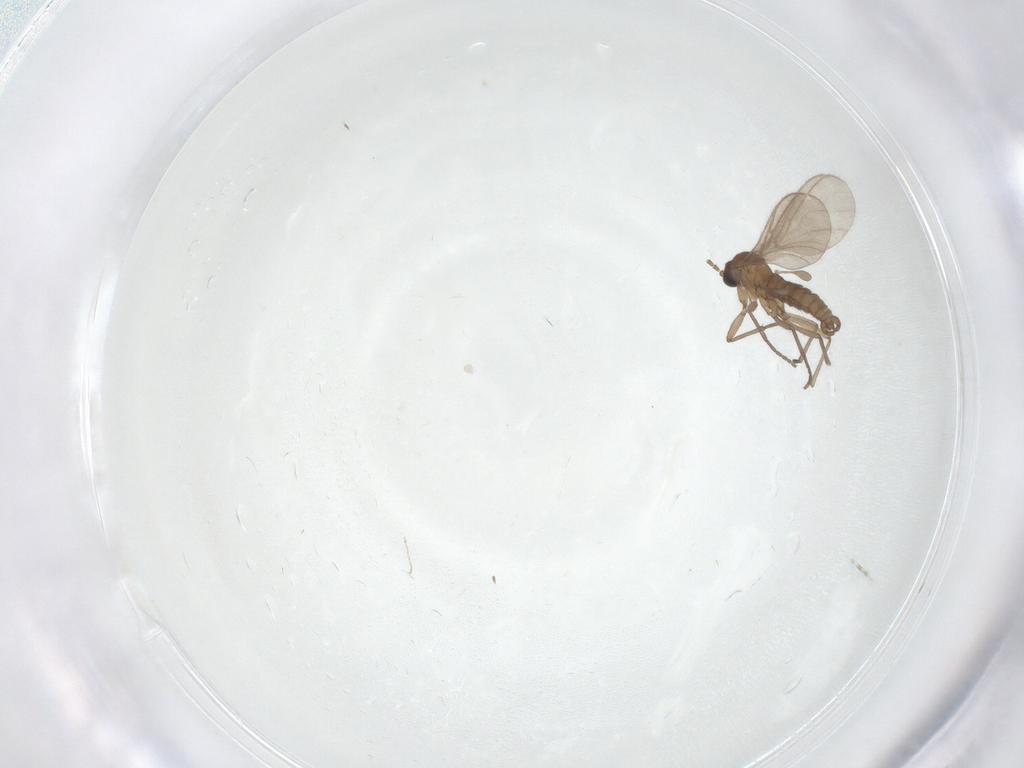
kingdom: Animalia
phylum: Arthropoda
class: Insecta
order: Diptera
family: Sciaridae
